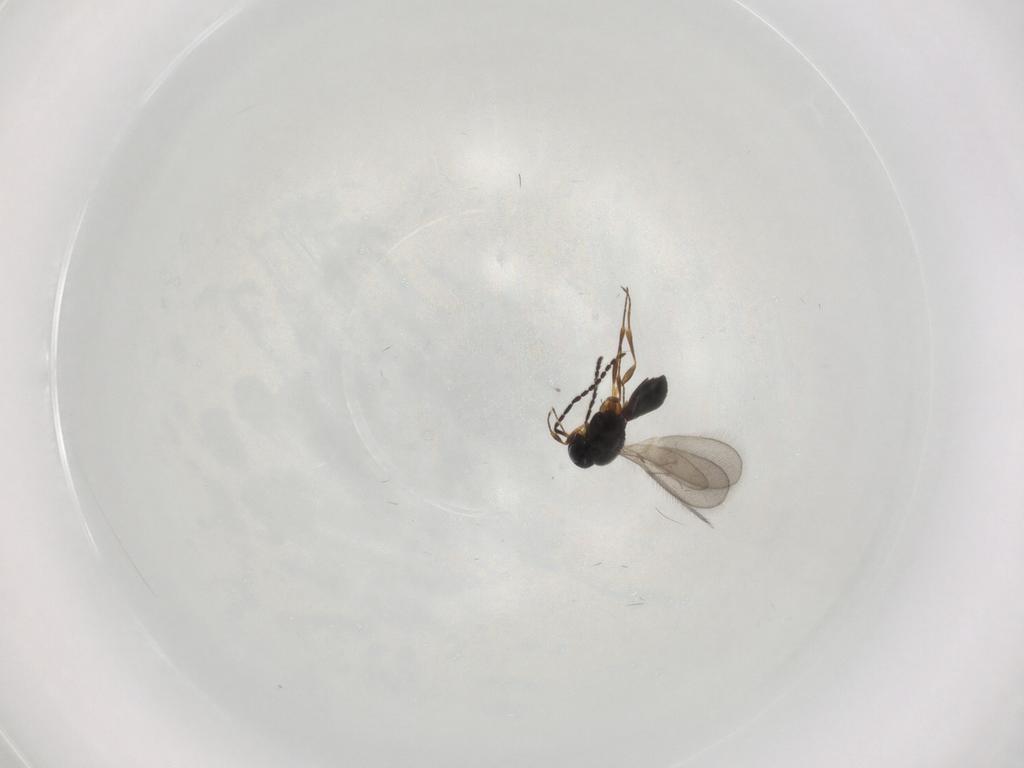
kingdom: Animalia
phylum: Arthropoda
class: Insecta
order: Hymenoptera
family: Scelionidae
